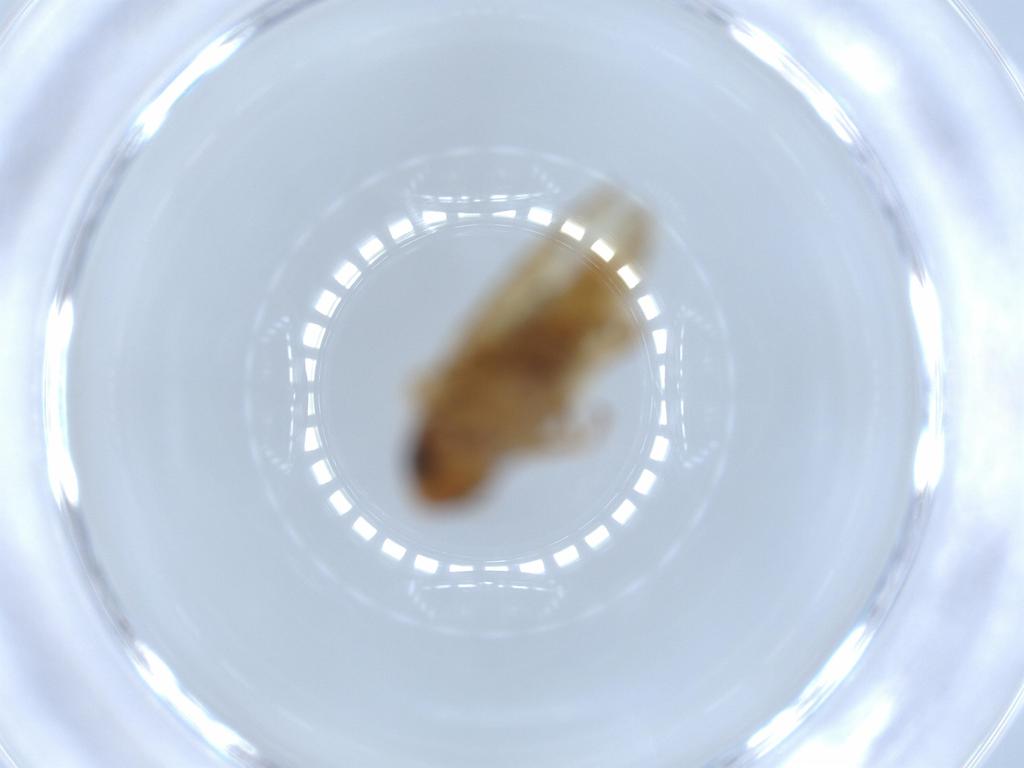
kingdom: Animalia
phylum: Arthropoda
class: Insecta
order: Hemiptera
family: Cicadellidae
